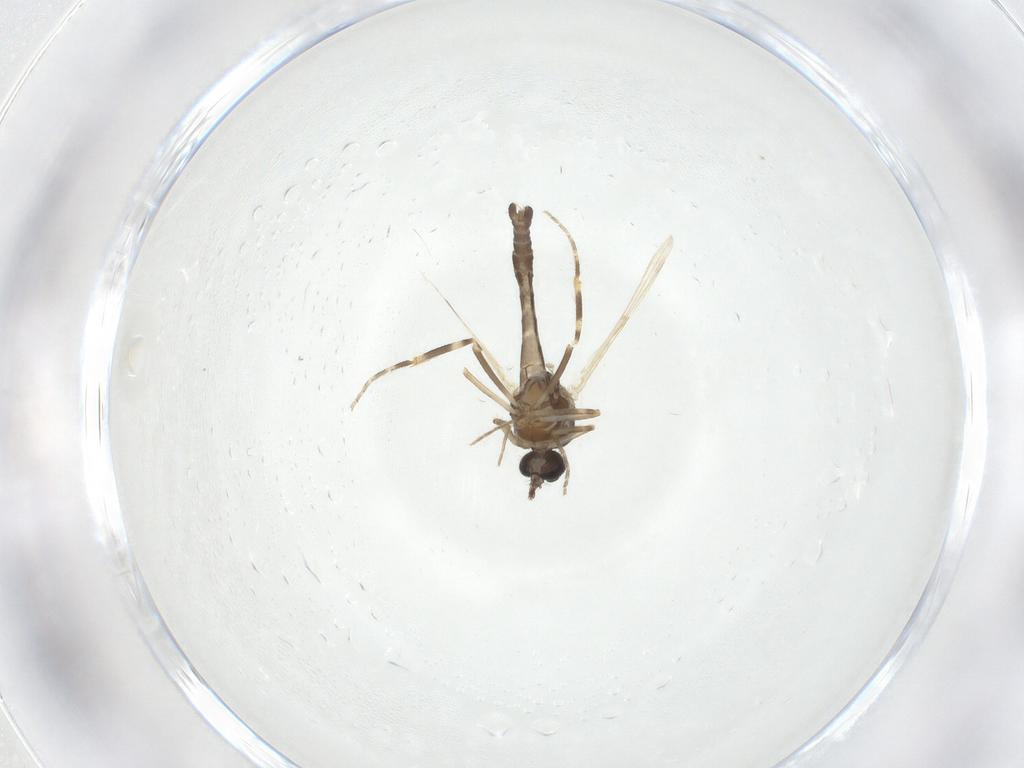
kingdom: Animalia
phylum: Arthropoda
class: Insecta
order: Diptera
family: Ceratopogonidae
